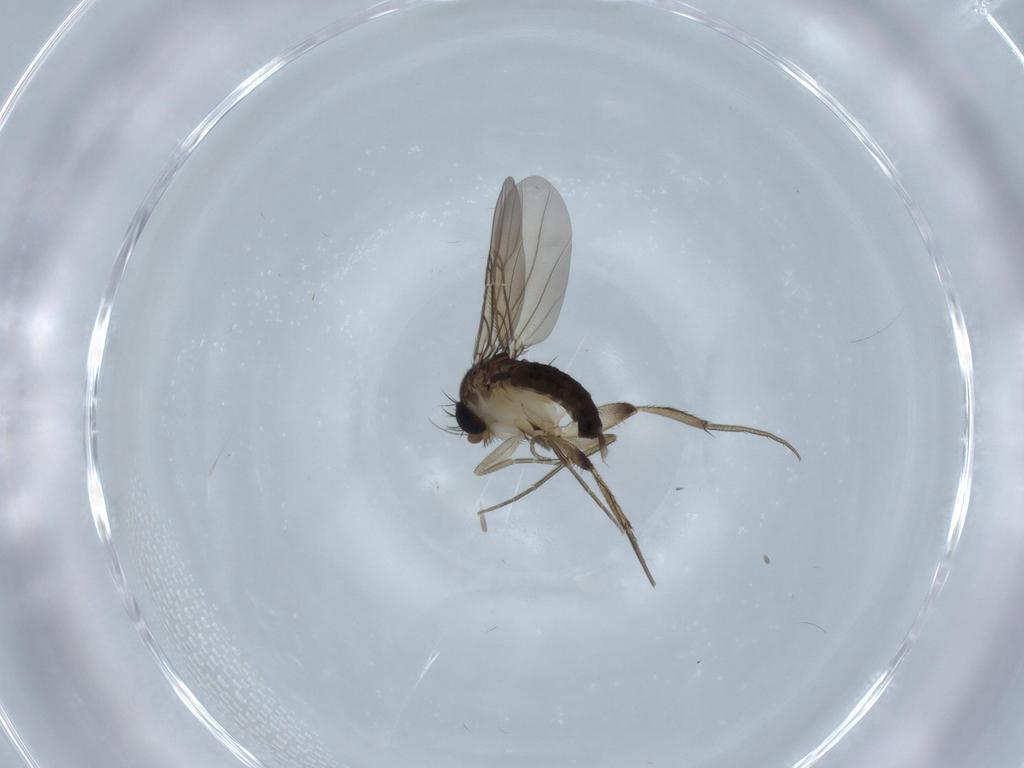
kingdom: Animalia
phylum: Arthropoda
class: Insecta
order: Diptera
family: Phoridae
